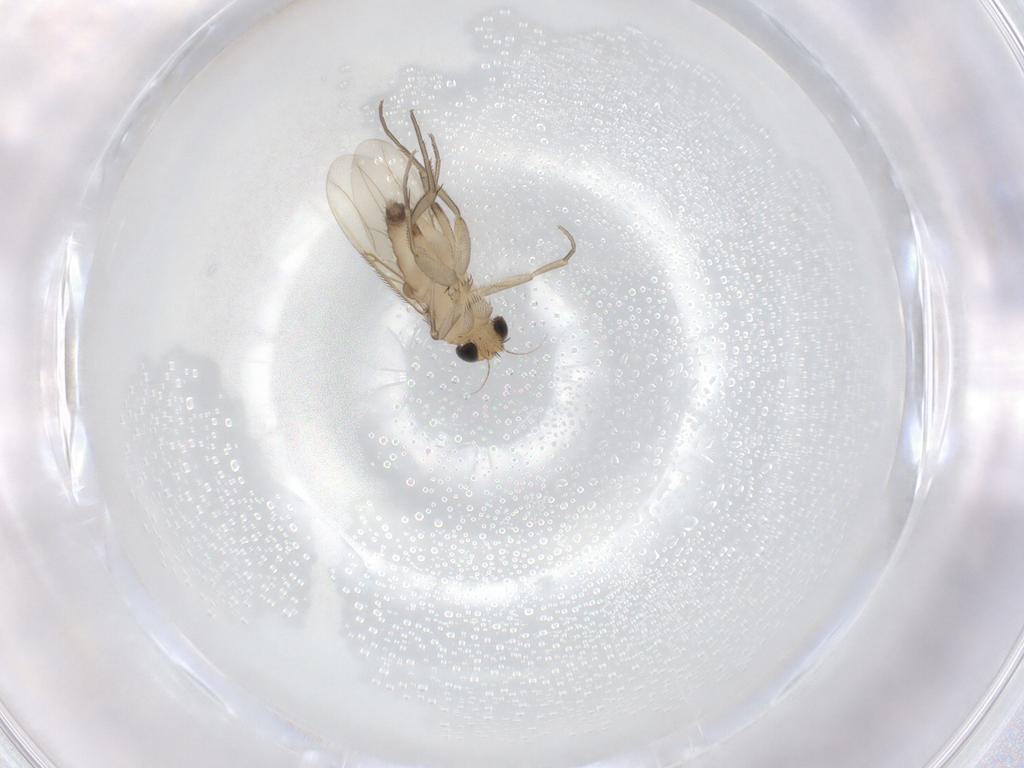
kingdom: Animalia
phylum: Arthropoda
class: Insecta
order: Diptera
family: Phoridae
